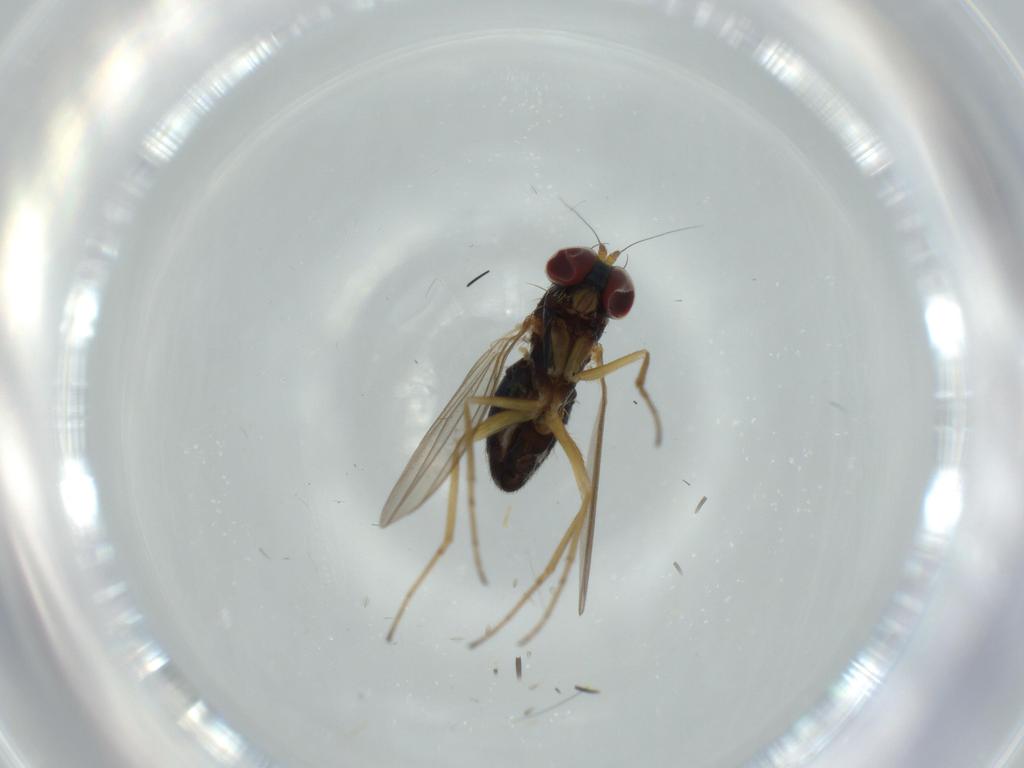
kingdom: Animalia
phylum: Arthropoda
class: Insecta
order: Diptera
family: Dolichopodidae
